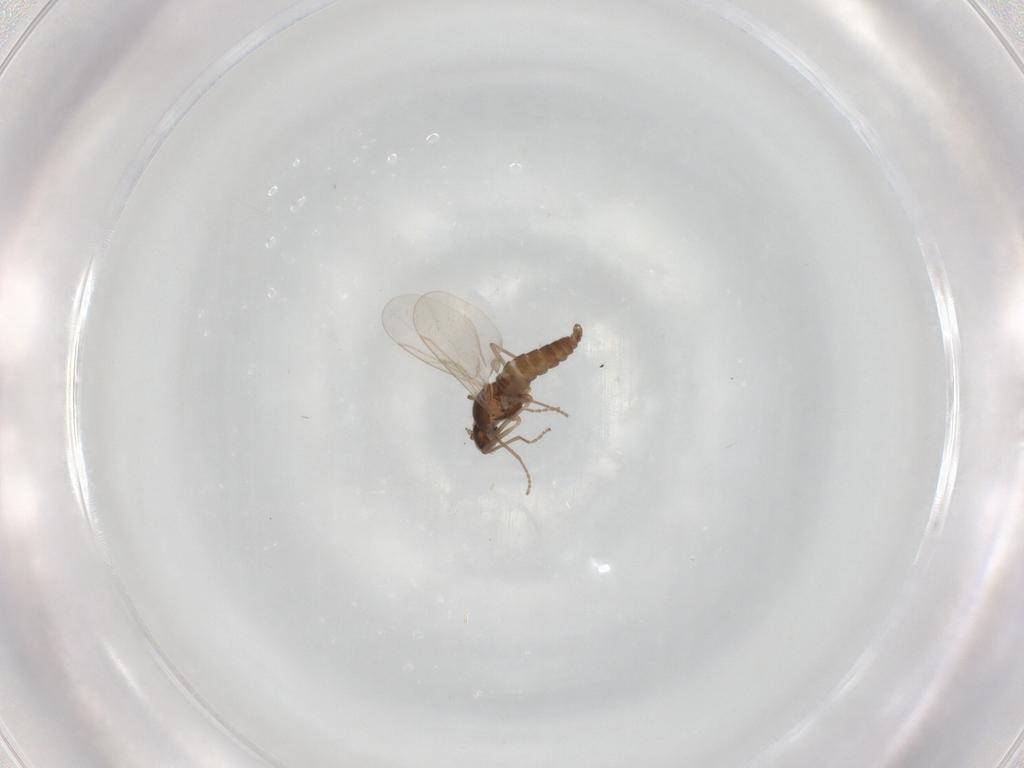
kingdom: Animalia
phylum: Arthropoda
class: Insecta
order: Diptera
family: Cecidomyiidae
